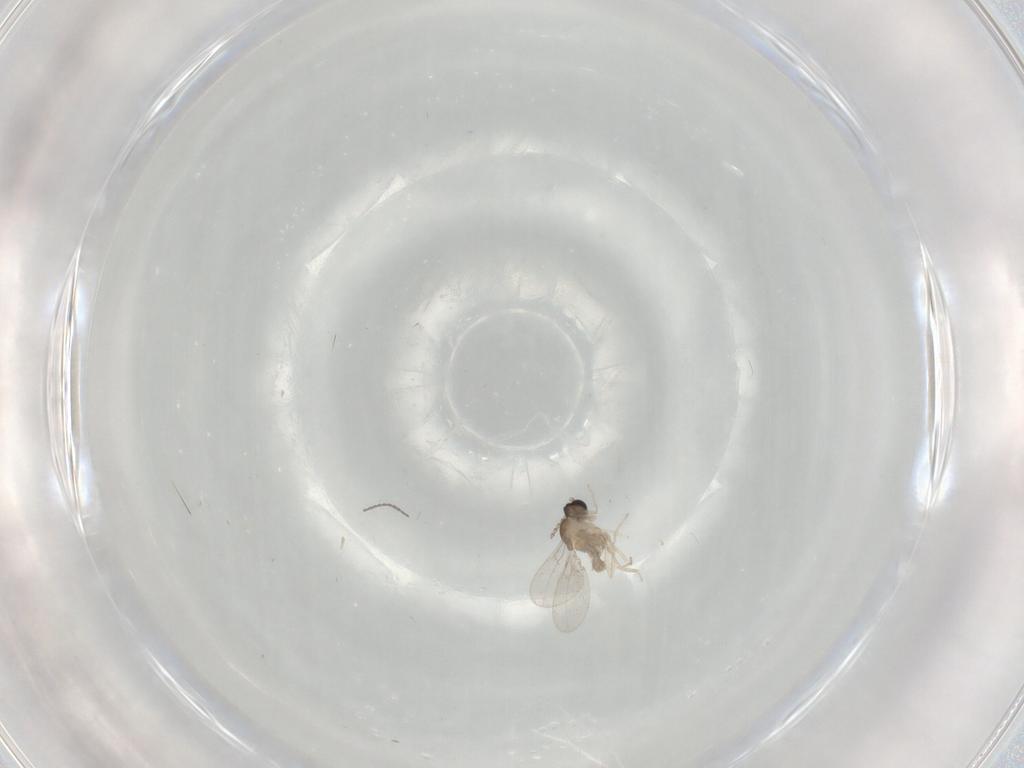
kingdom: Animalia
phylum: Arthropoda
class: Insecta
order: Diptera
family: Cecidomyiidae
